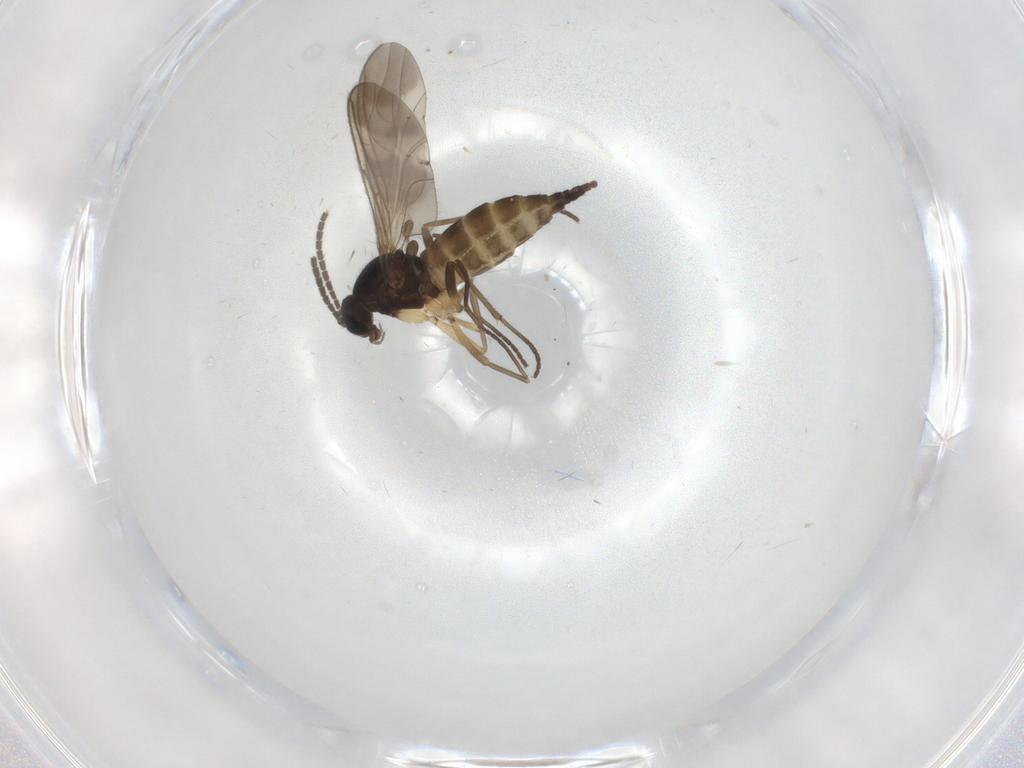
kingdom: Animalia
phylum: Arthropoda
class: Insecta
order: Diptera
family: Sciaridae
